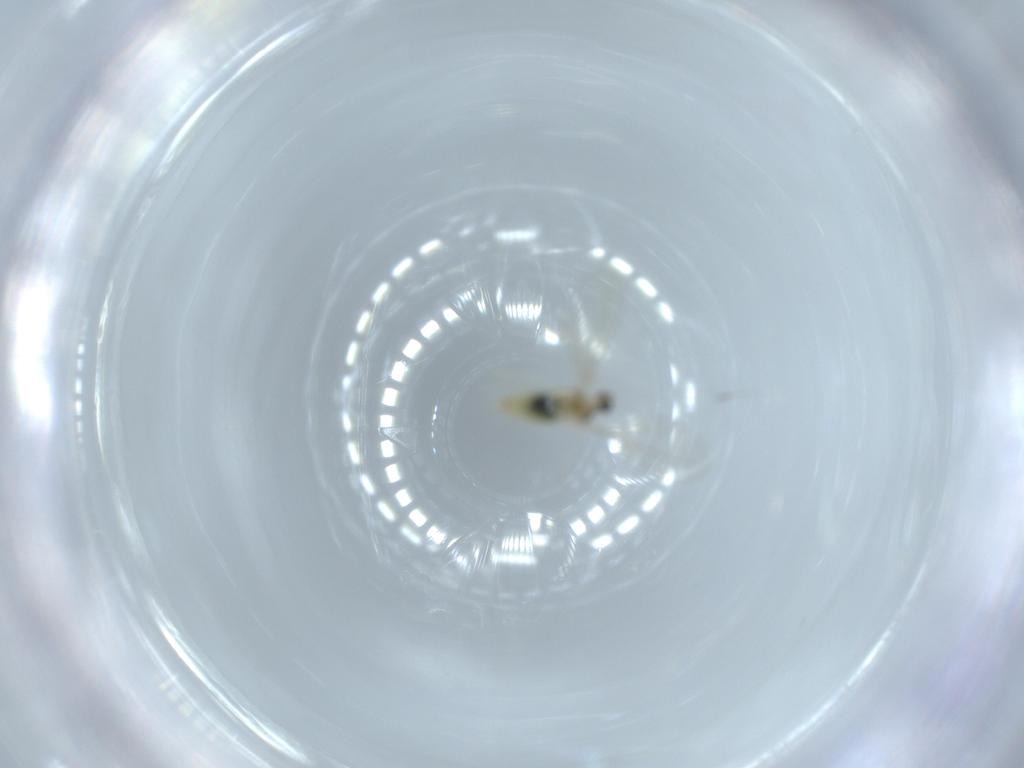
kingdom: Animalia
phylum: Arthropoda
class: Insecta
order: Diptera
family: Cecidomyiidae
